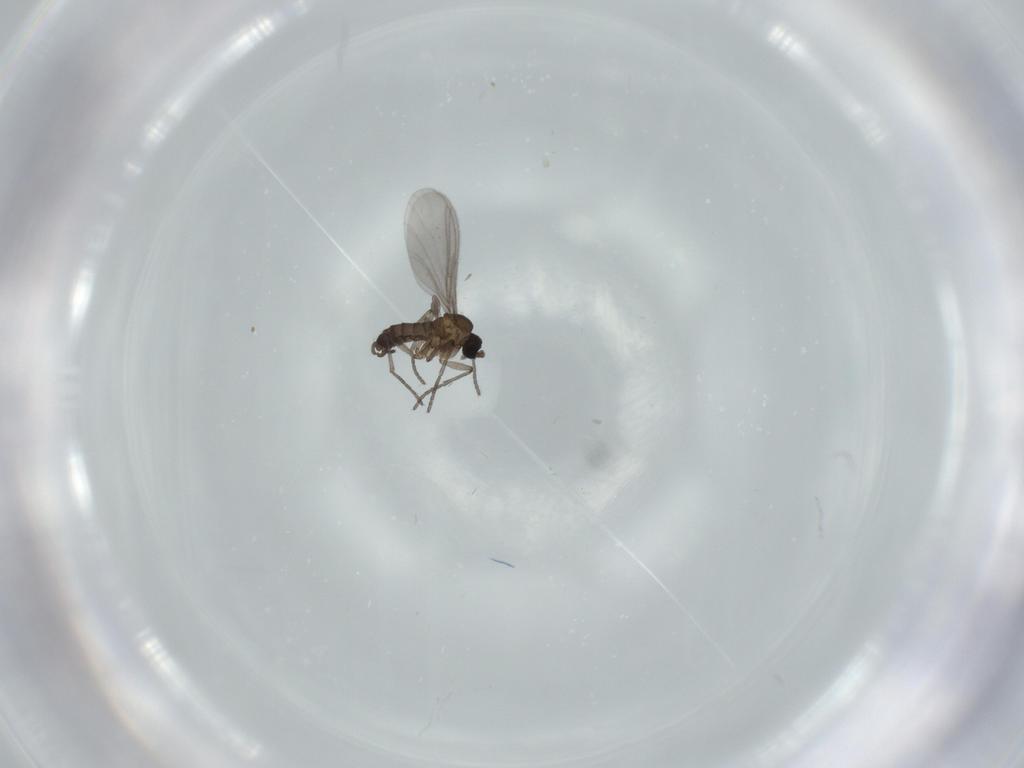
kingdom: Animalia
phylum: Arthropoda
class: Insecta
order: Diptera
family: Sciaridae
